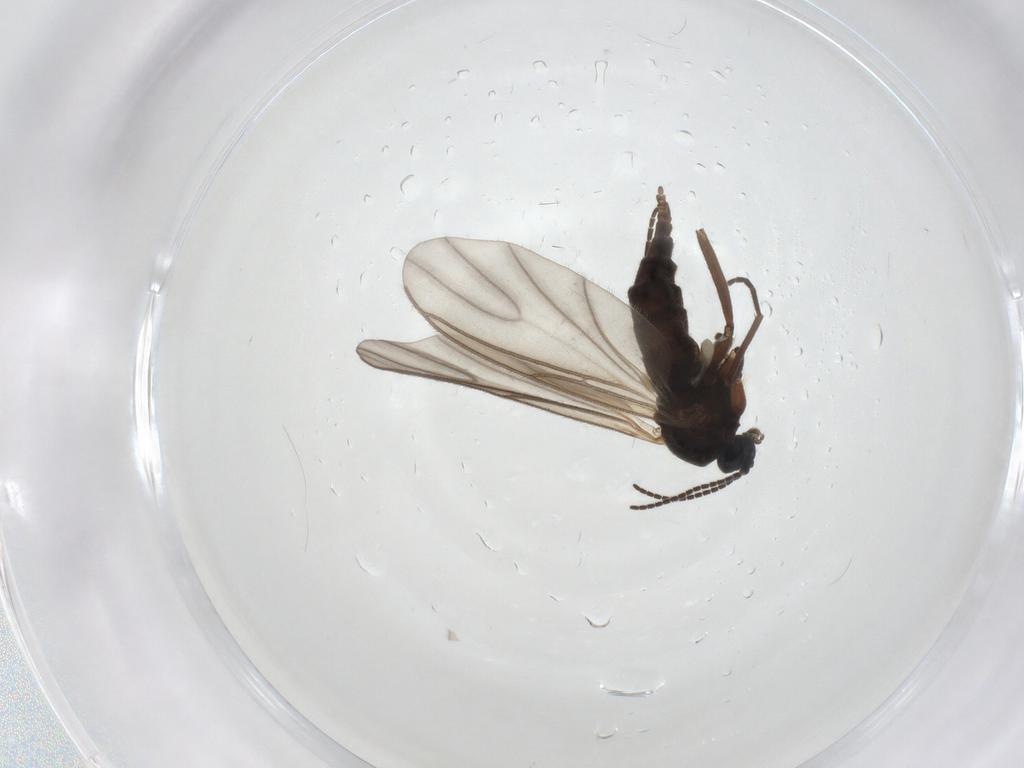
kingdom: Animalia
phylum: Arthropoda
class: Insecta
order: Diptera
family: Sciaridae
